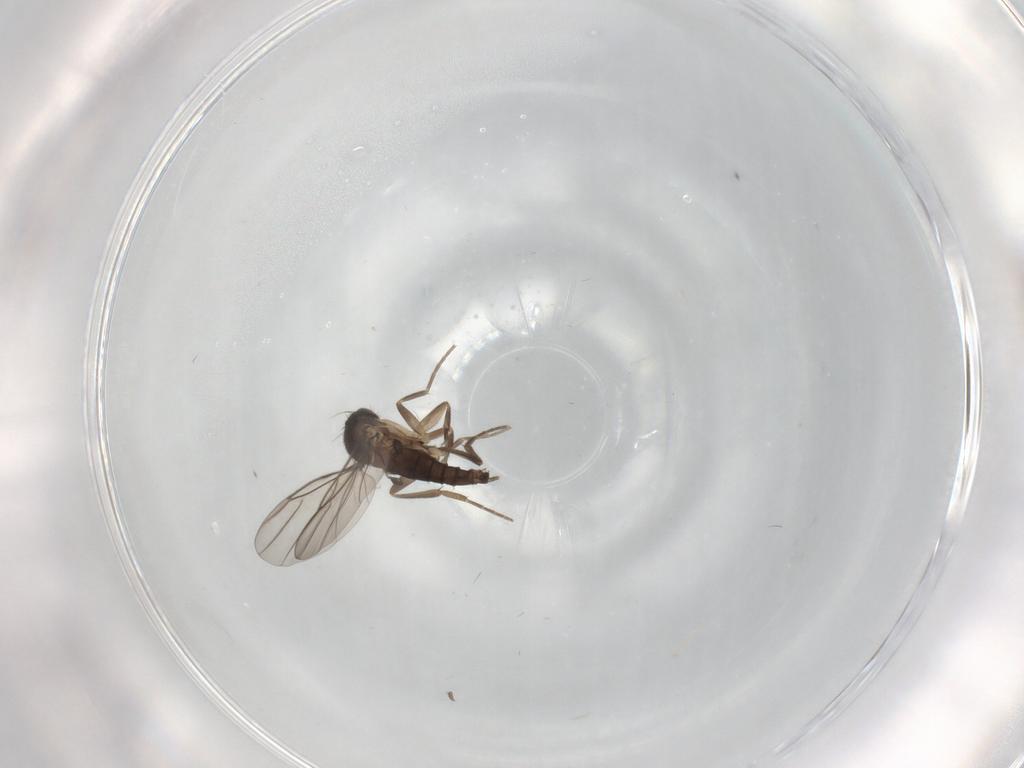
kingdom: Animalia
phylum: Arthropoda
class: Insecta
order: Diptera
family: Phoridae
